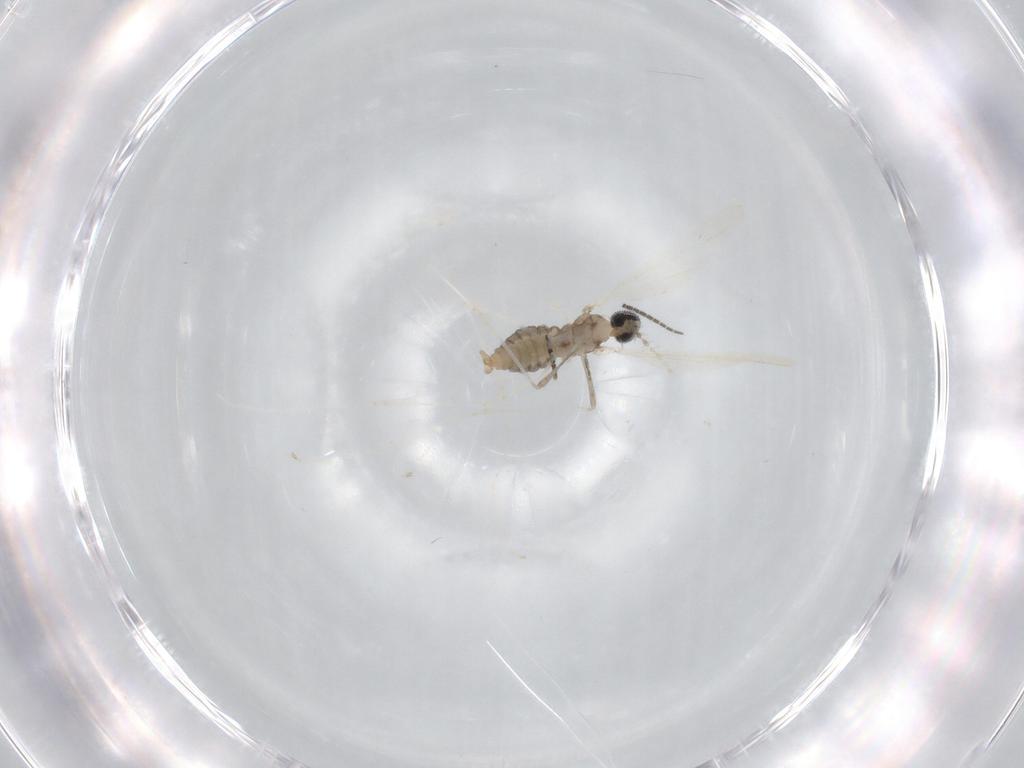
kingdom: Animalia
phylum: Arthropoda
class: Insecta
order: Diptera
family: Cecidomyiidae
